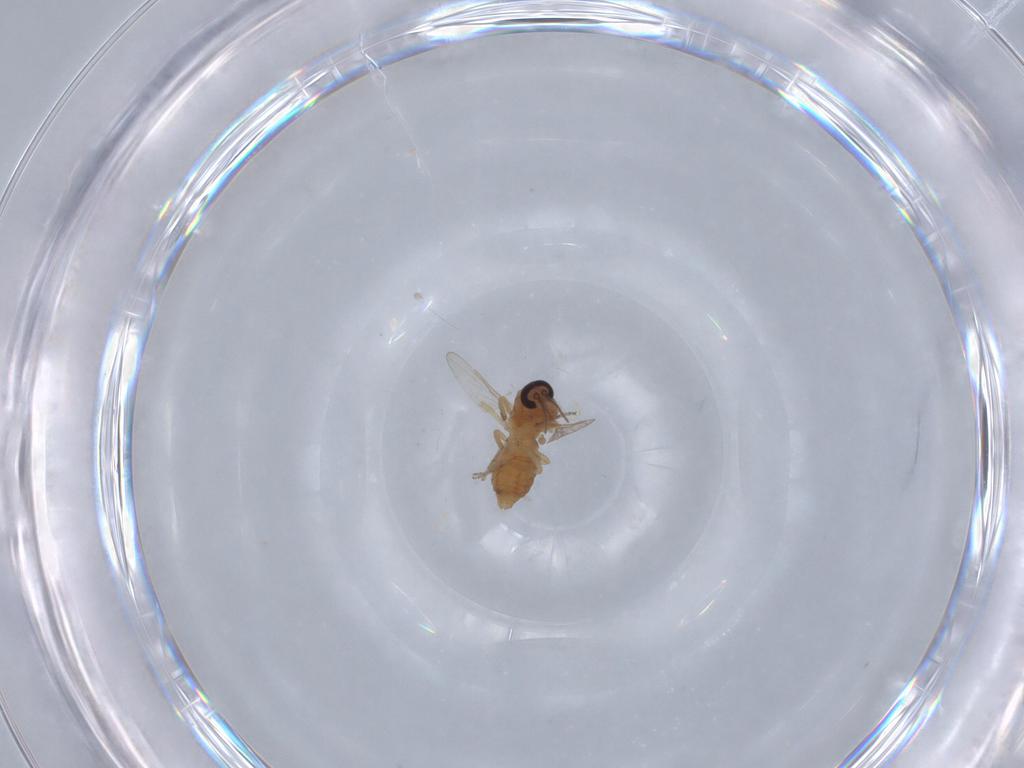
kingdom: Animalia
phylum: Arthropoda
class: Insecta
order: Diptera
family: Ceratopogonidae
